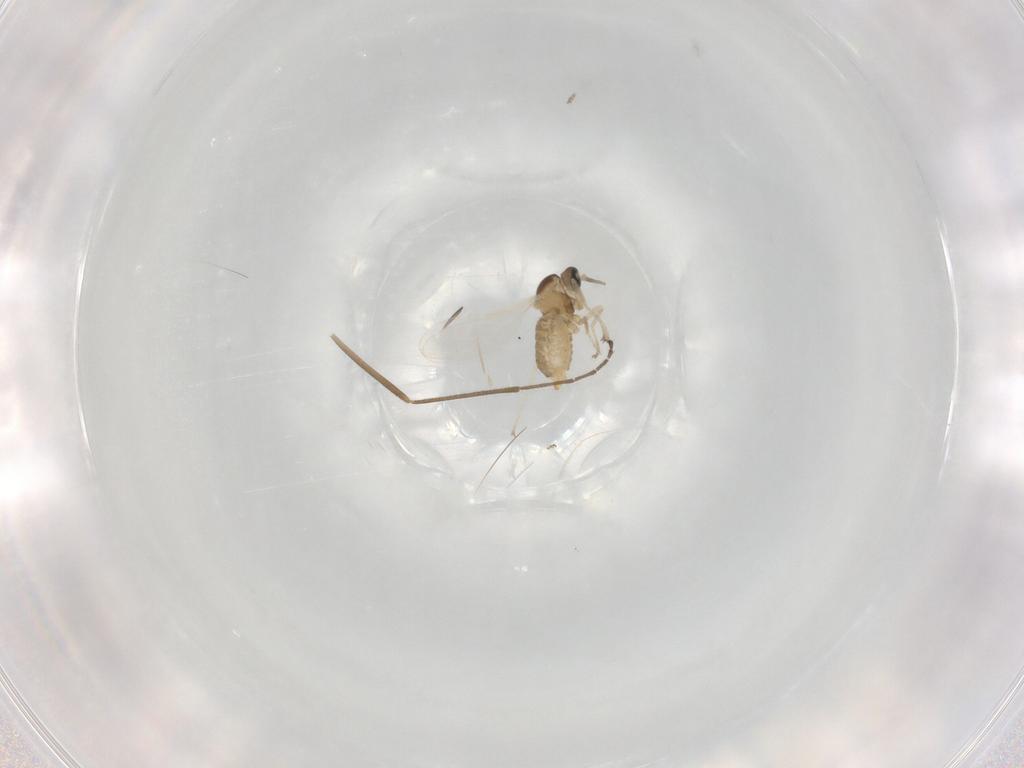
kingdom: Animalia
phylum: Arthropoda
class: Insecta
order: Diptera
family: Cecidomyiidae
